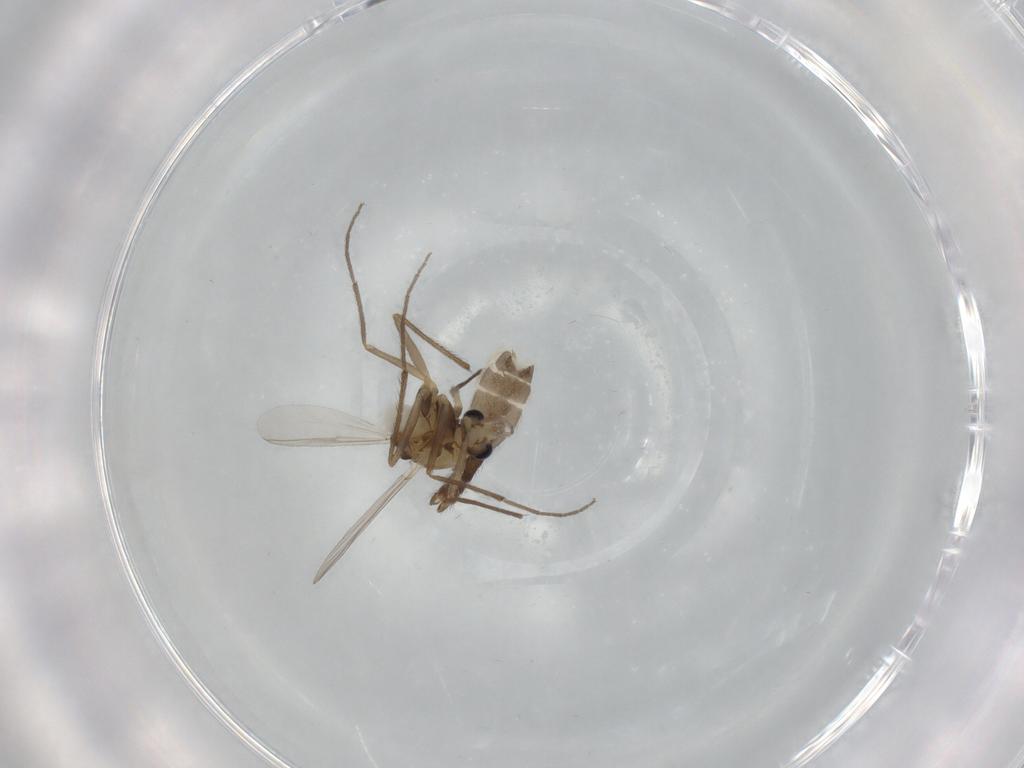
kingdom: Animalia
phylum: Arthropoda
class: Insecta
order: Diptera
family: Chironomidae
